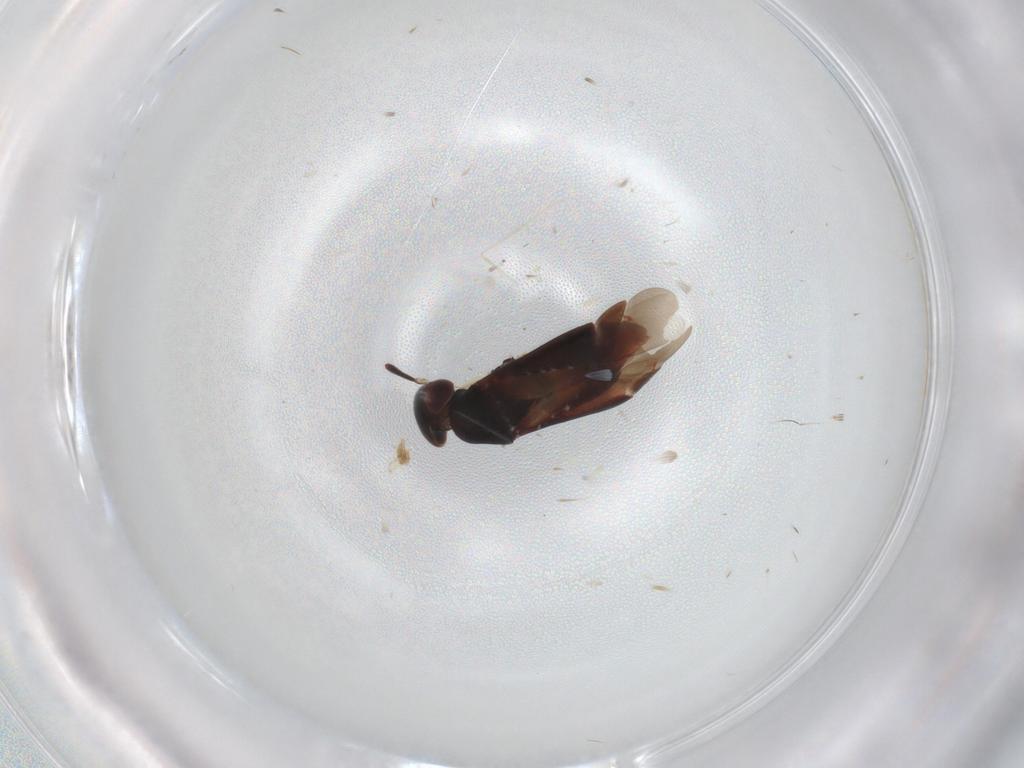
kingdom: Animalia
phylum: Arthropoda
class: Insecta
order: Hemiptera
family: Miridae
